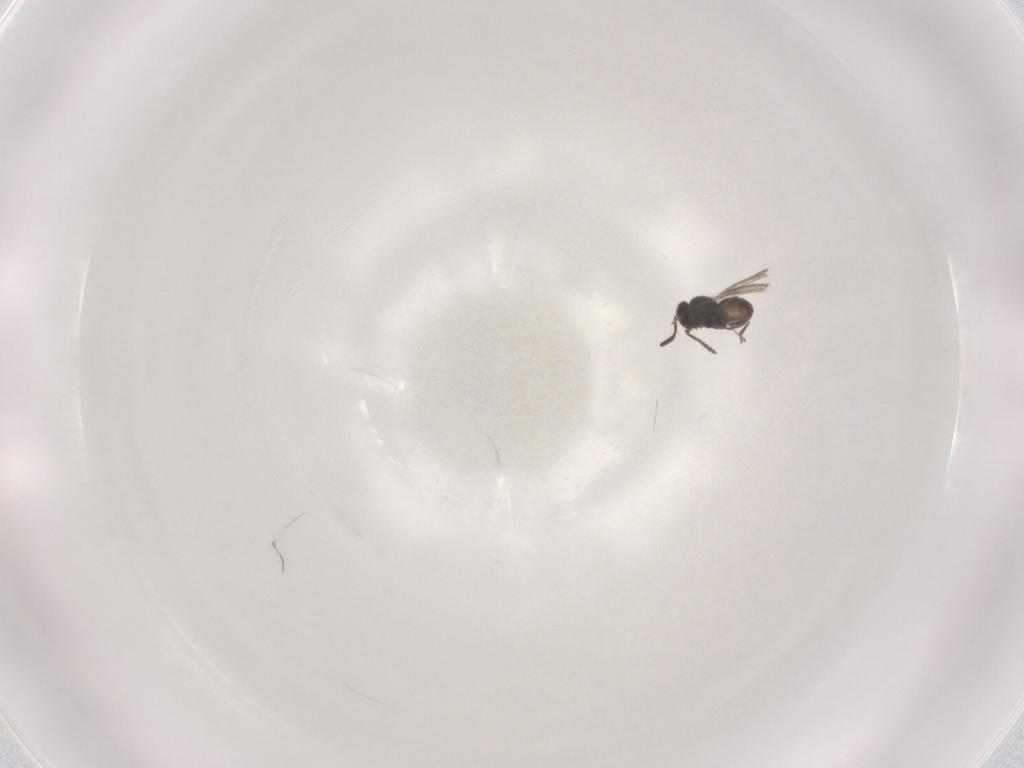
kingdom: Animalia
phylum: Arthropoda
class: Insecta
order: Hymenoptera
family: Scelionidae
